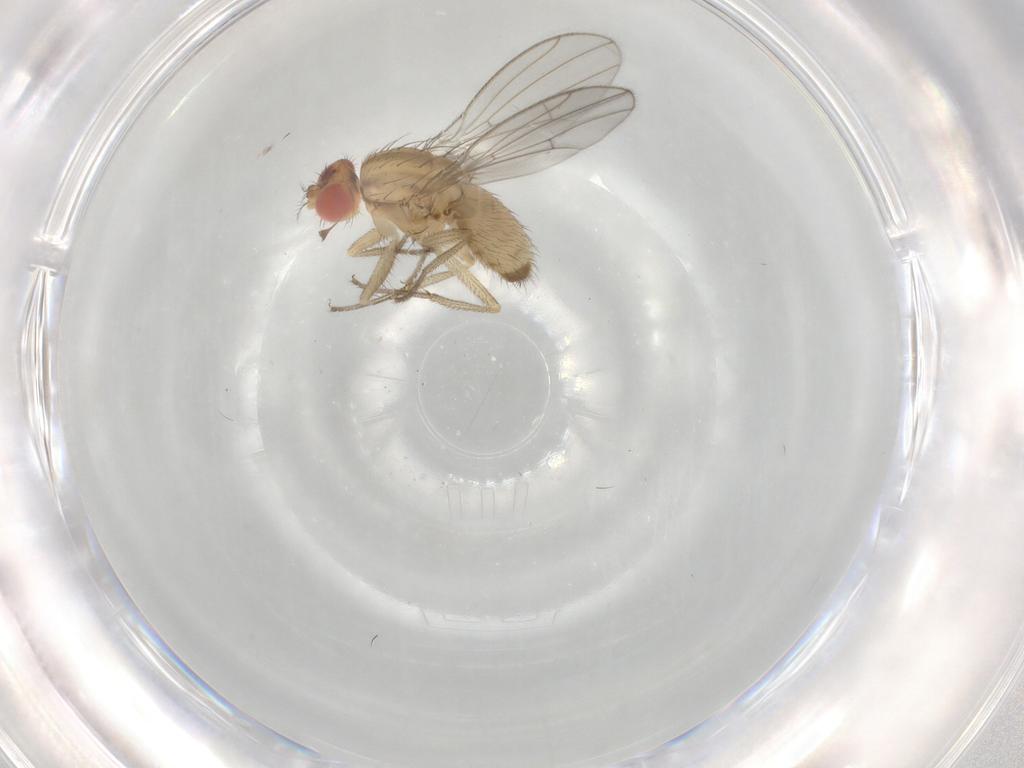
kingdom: Animalia
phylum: Arthropoda
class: Insecta
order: Diptera
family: Drosophilidae
